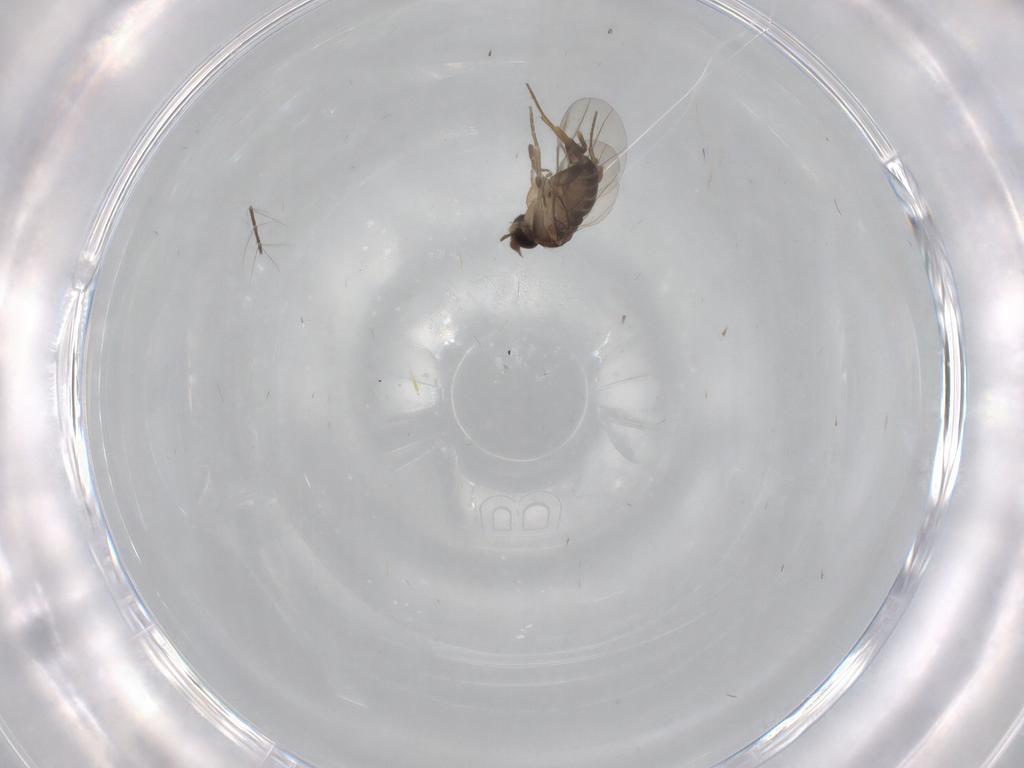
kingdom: Animalia
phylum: Arthropoda
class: Insecta
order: Diptera
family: Phoridae
